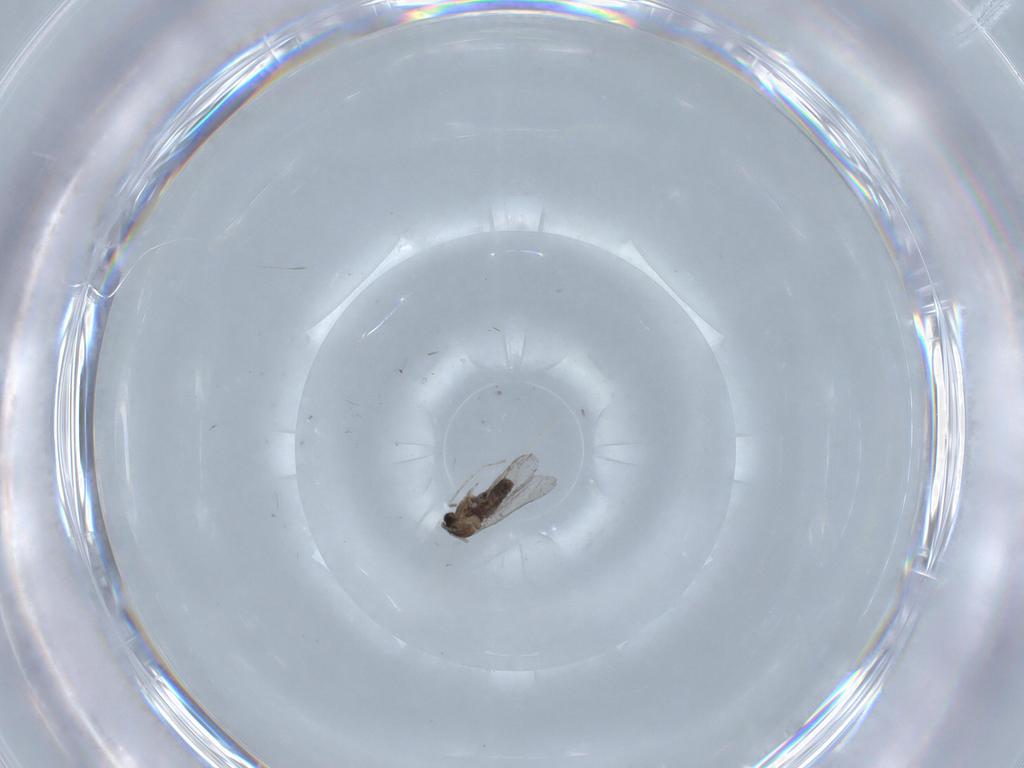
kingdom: Animalia
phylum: Arthropoda
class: Insecta
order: Diptera
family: Cecidomyiidae
